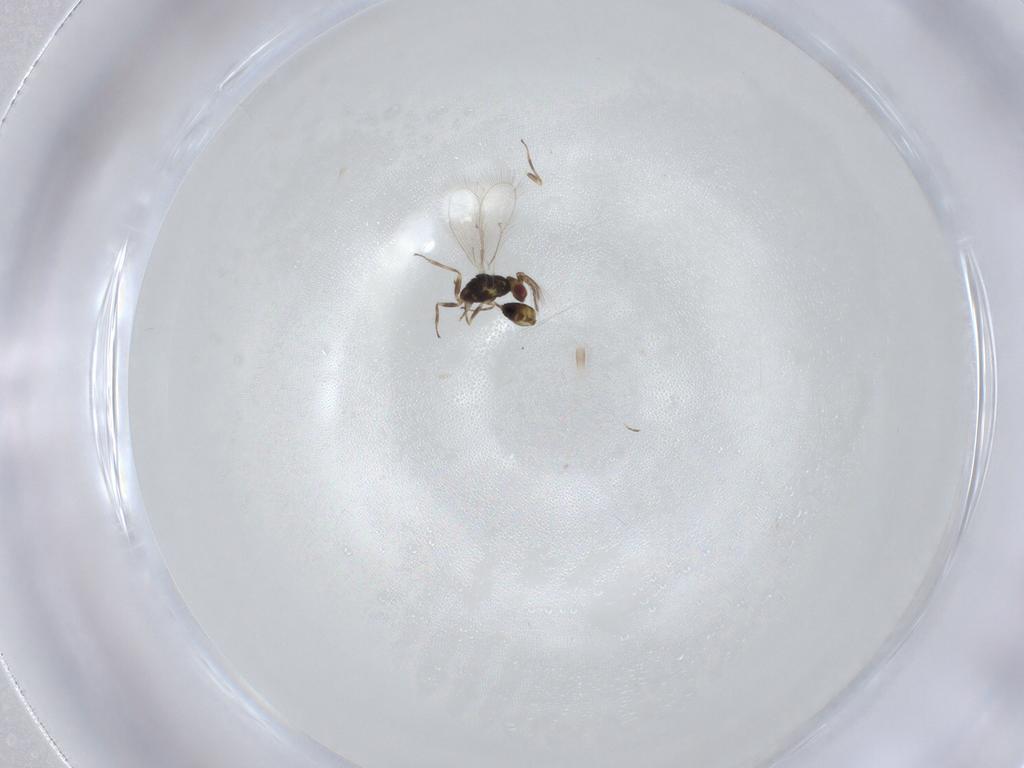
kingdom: Animalia
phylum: Arthropoda
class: Insecta
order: Hymenoptera
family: Eulophidae
